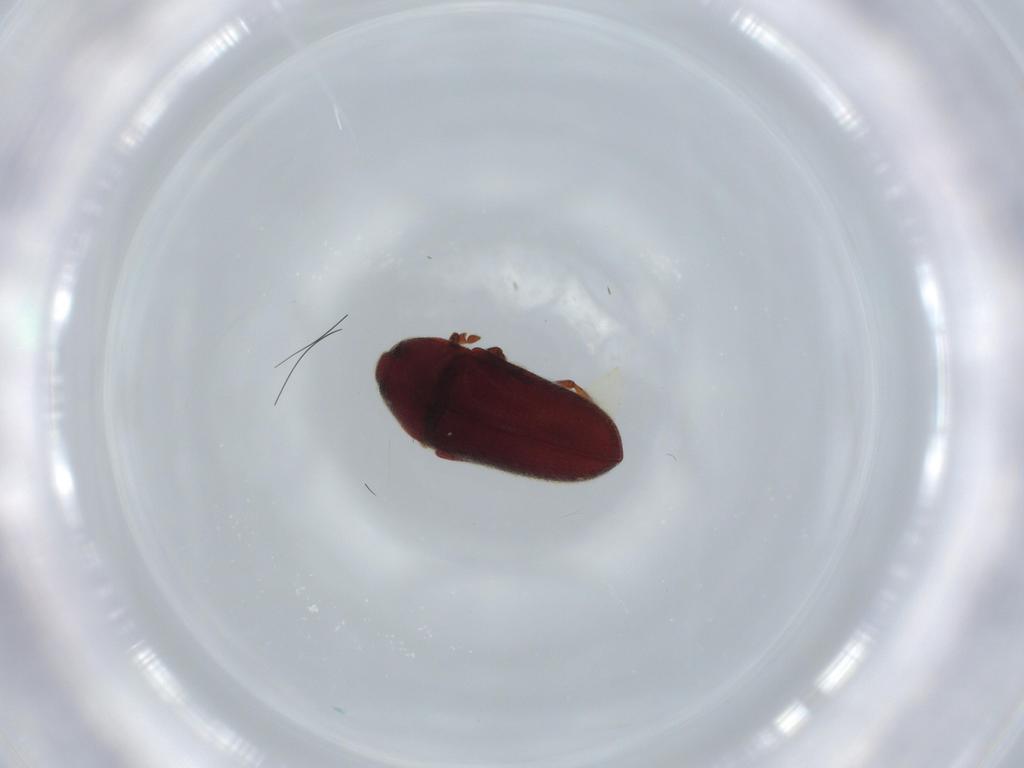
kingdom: Animalia
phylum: Arthropoda
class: Insecta
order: Coleoptera
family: Throscidae
